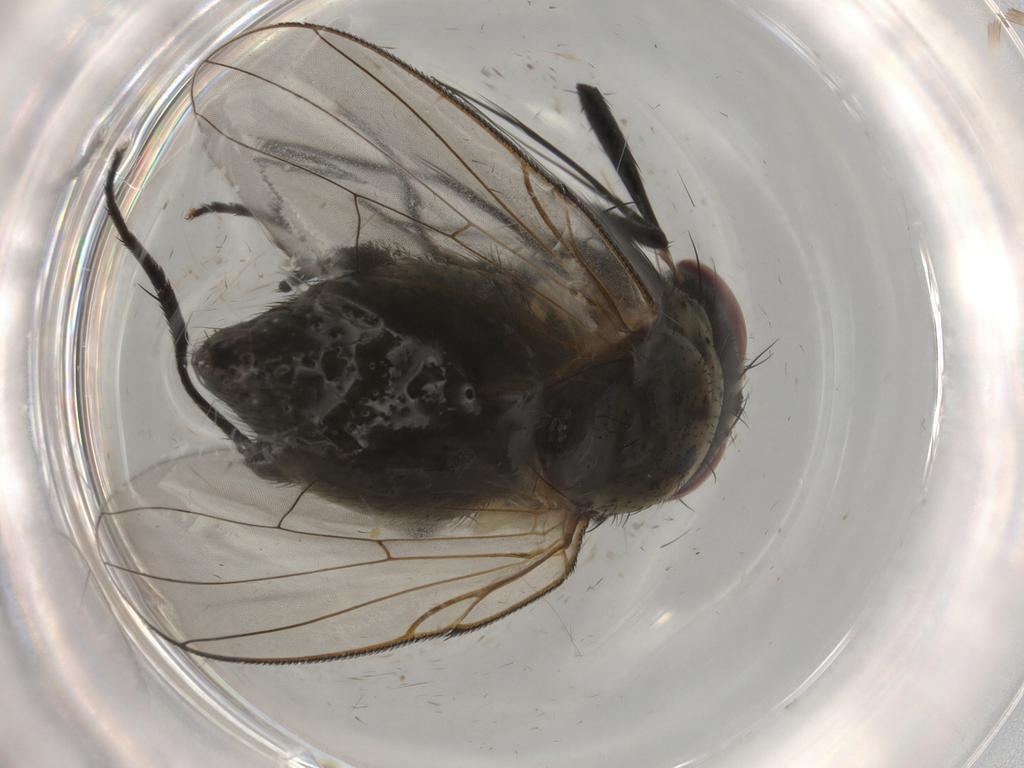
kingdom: Animalia
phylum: Arthropoda
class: Insecta
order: Diptera
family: Muscidae
